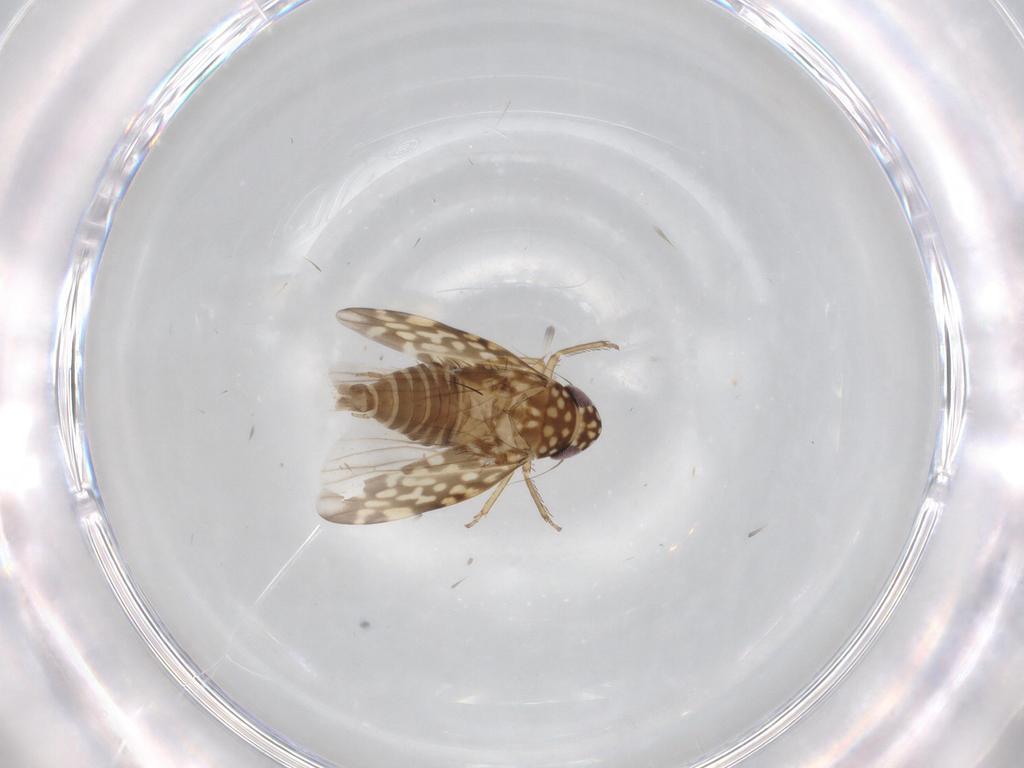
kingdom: Animalia
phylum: Arthropoda
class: Insecta
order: Hemiptera
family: Cicadellidae
